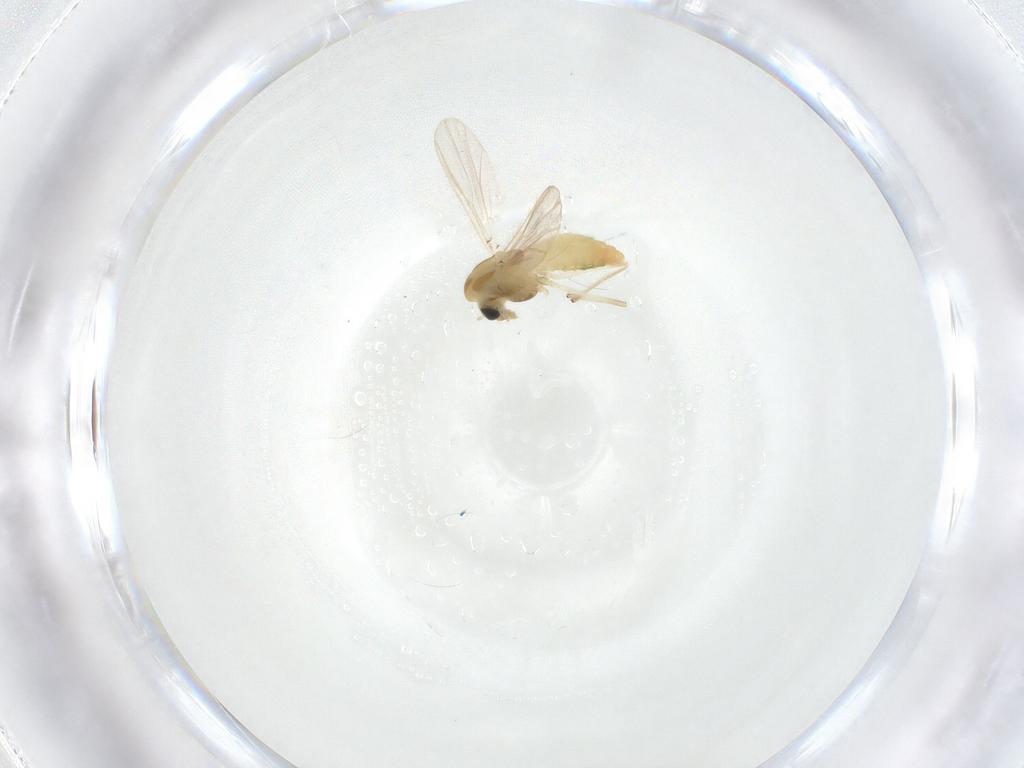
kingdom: Animalia
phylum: Arthropoda
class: Insecta
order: Diptera
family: Chironomidae
